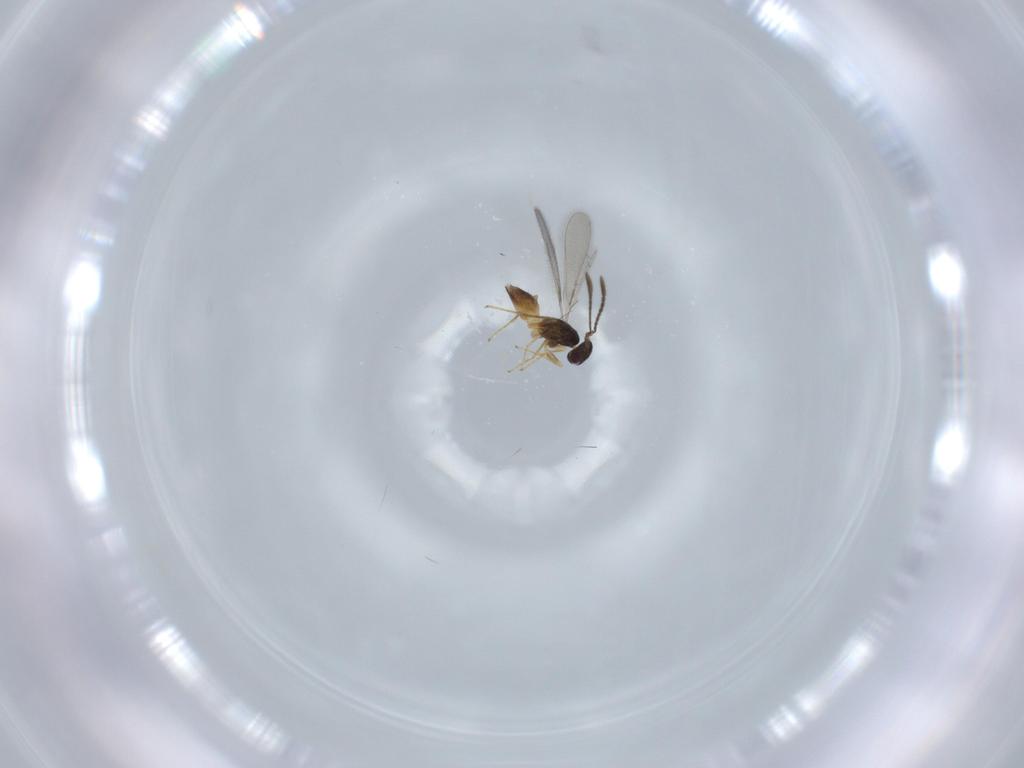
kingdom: Animalia
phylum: Arthropoda
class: Insecta
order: Hymenoptera
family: Mymaridae
